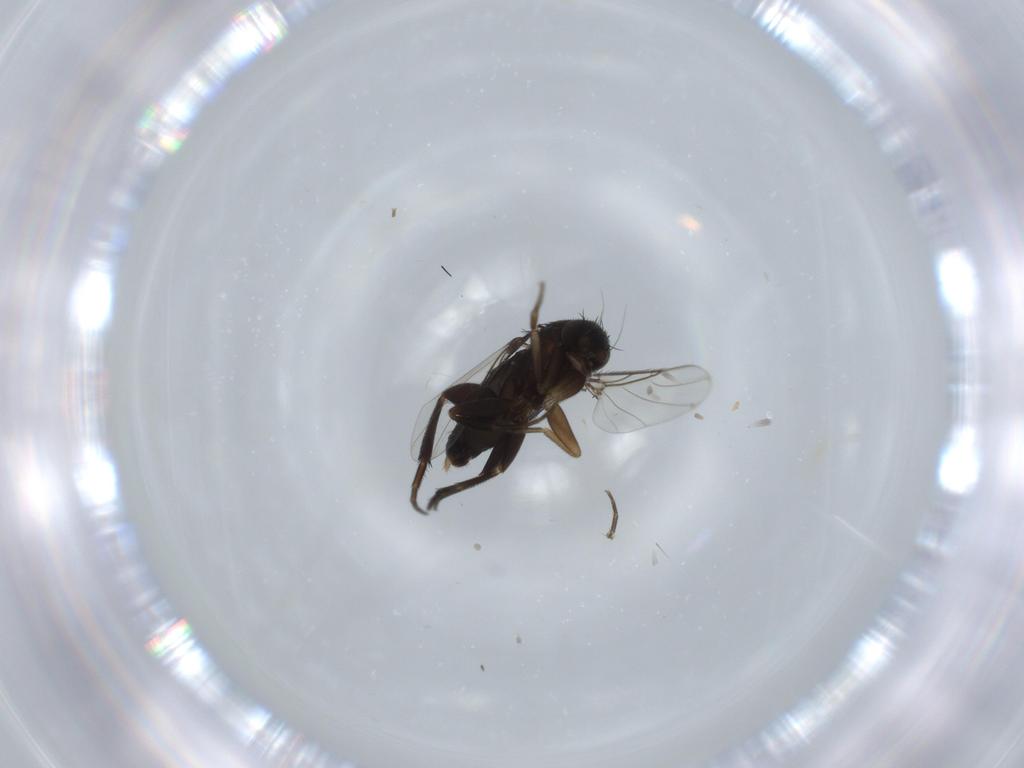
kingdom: Animalia
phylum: Arthropoda
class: Insecta
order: Diptera
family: Phoridae
